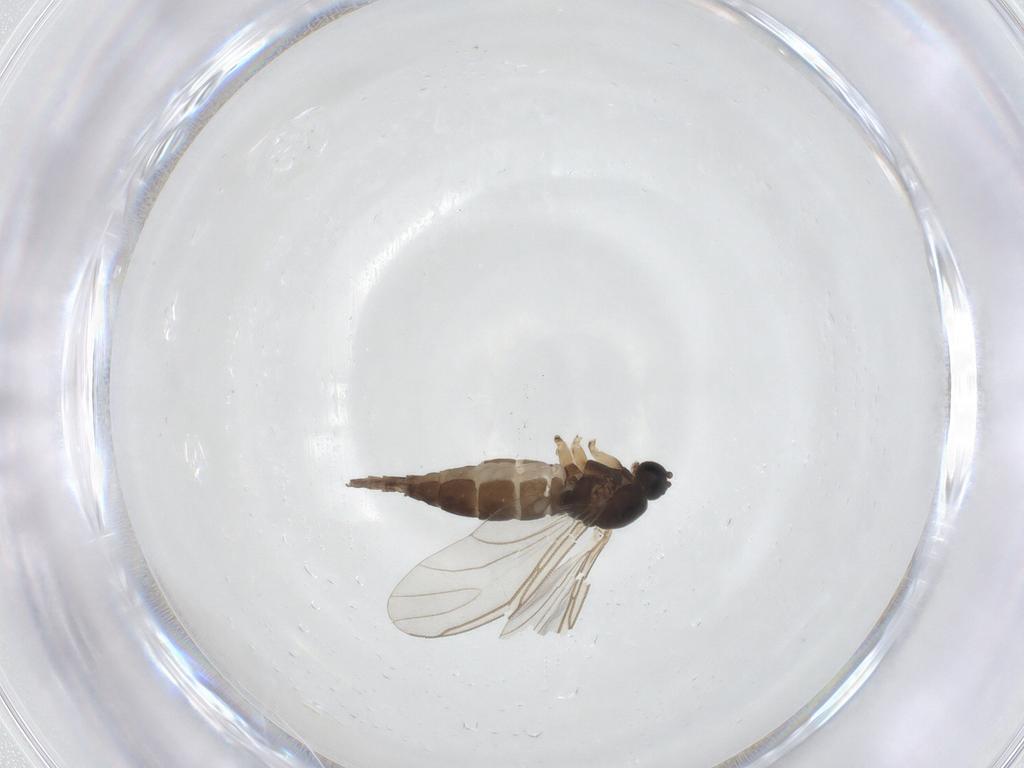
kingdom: Animalia
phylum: Arthropoda
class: Insecta
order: Diptera
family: Sciaridae
